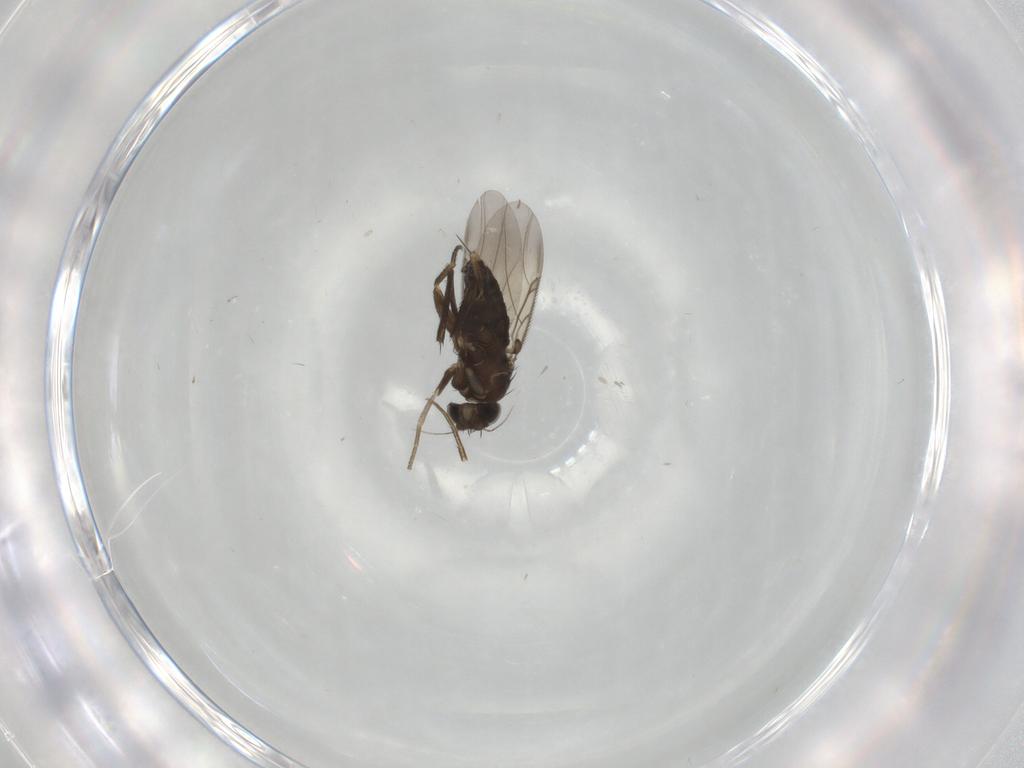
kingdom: Animalia
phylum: Arthropoda
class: Insecta
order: Diptera
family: Phoridae
